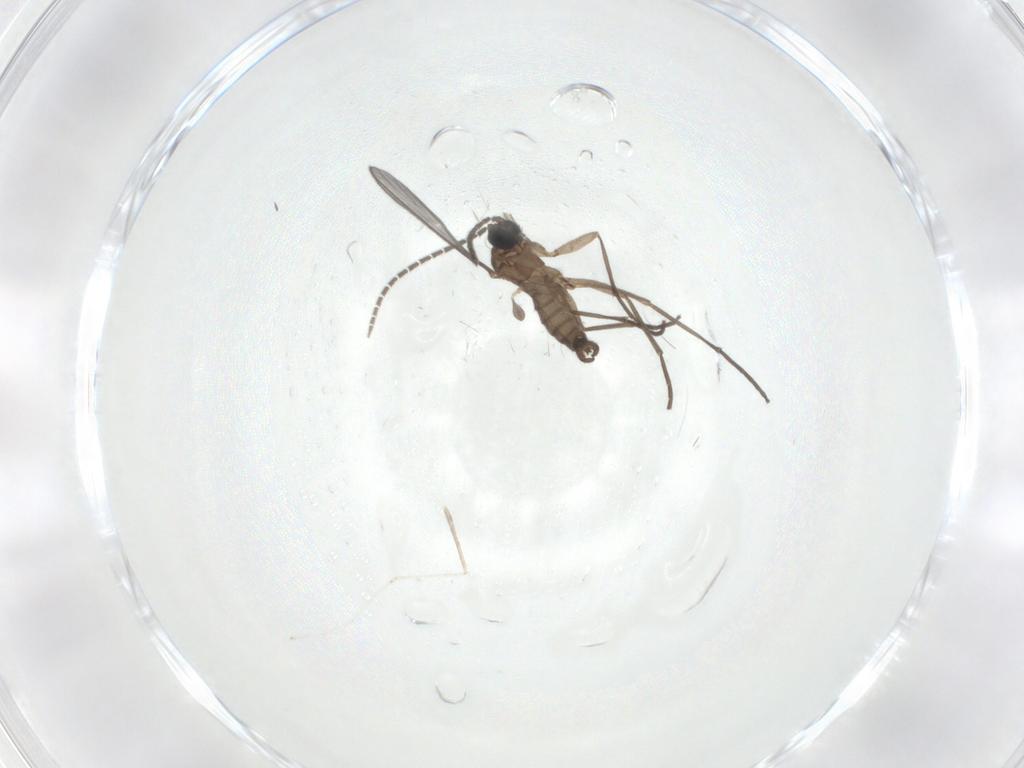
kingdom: Animalia
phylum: Arthropoda
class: Insecta
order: Diptera
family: Sciaridae
